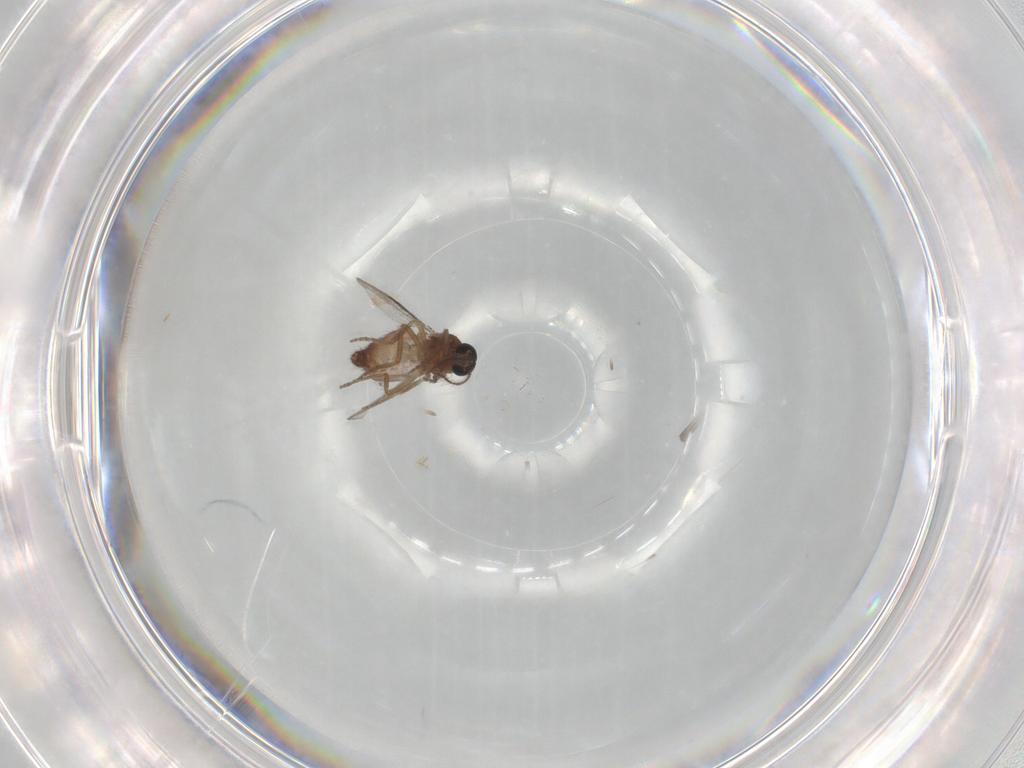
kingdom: Animalia
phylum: Arthropoda
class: Insecta
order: Diptera
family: Ceratopogonidae
